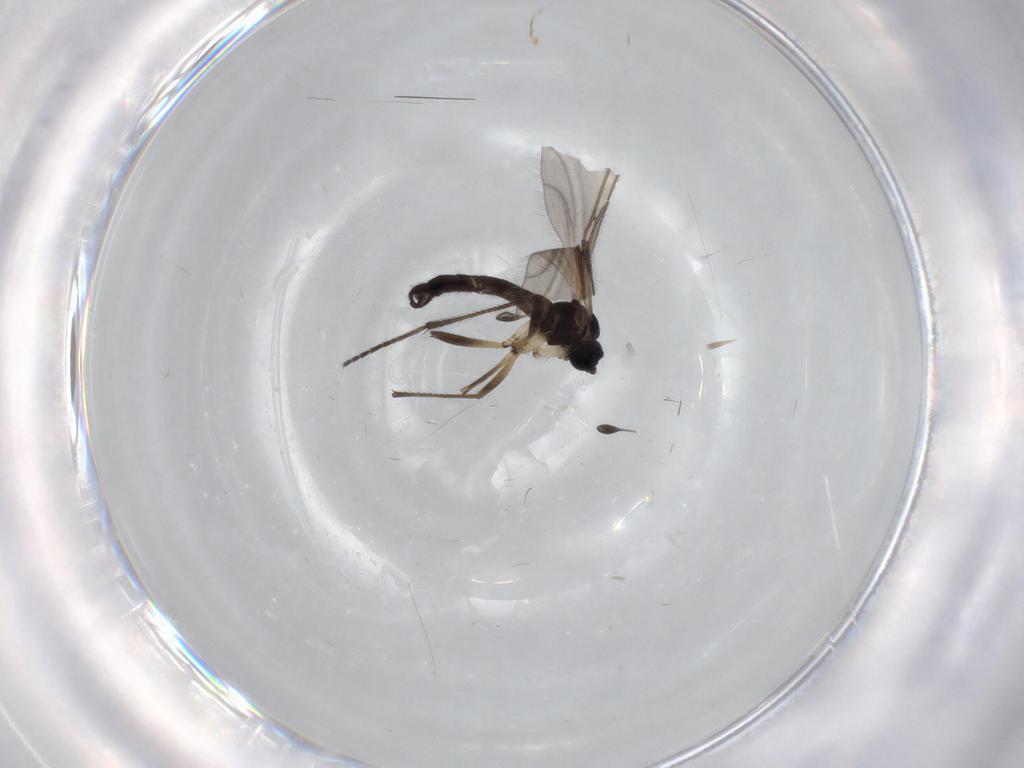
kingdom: Animalia
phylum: Arthropoda
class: Insecta
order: Diptera
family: Sciaridae
